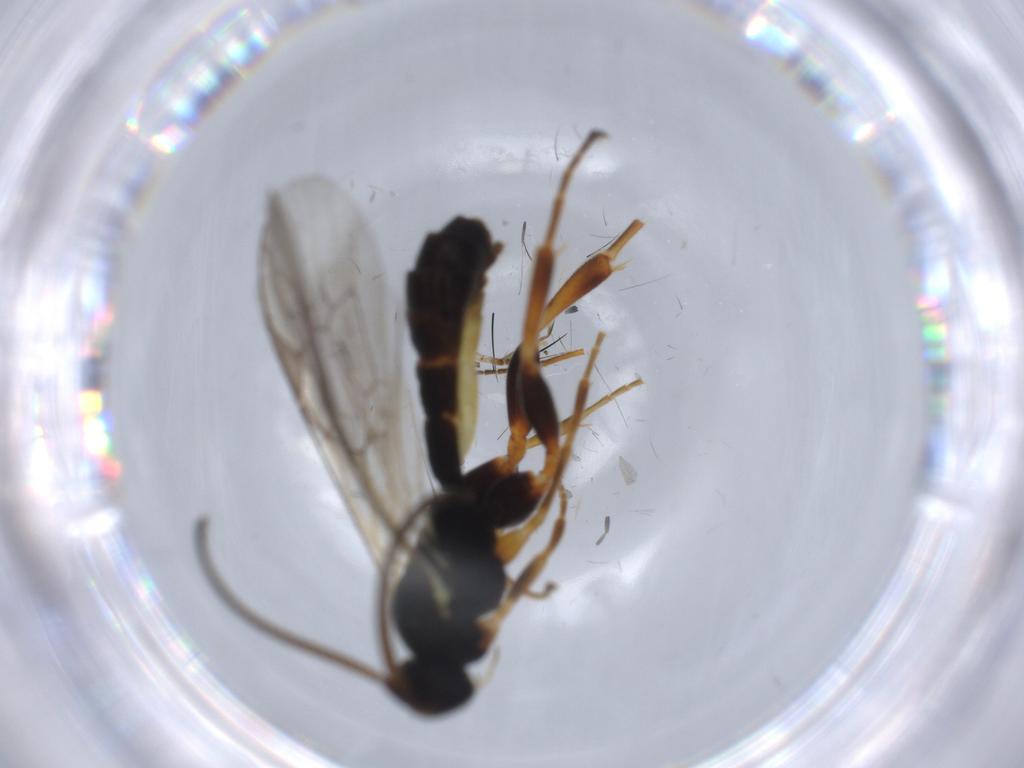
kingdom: Animalia
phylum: Arthropoda
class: Insecta
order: Hymenoptera
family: Ichneumonidae
